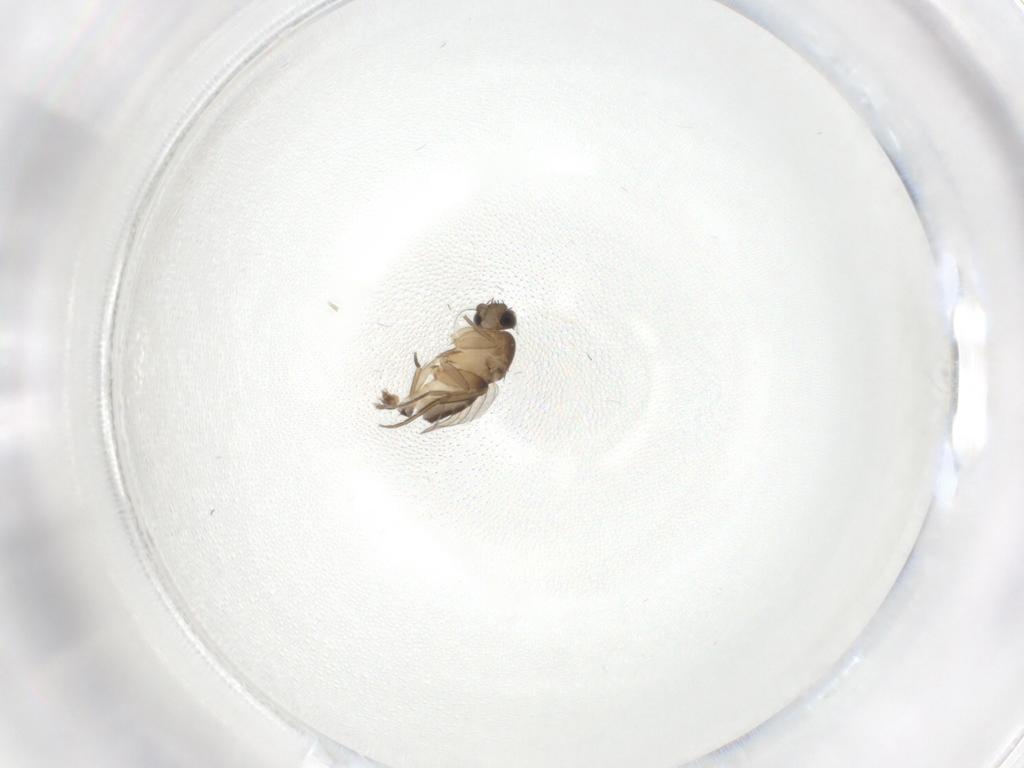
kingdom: Animalia
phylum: Arthropoda
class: Insecta
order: Diptera
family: Phoridae
